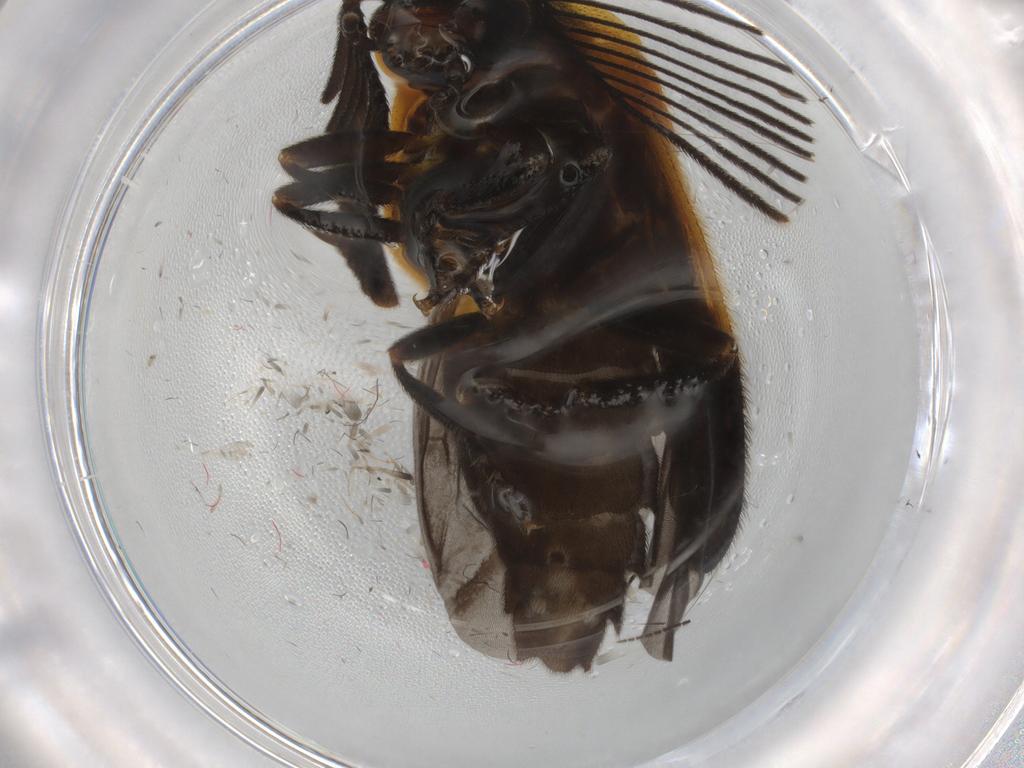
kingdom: Animalia
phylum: Arthropoda
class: Insecta
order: Coleoptera
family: Lampyridae
